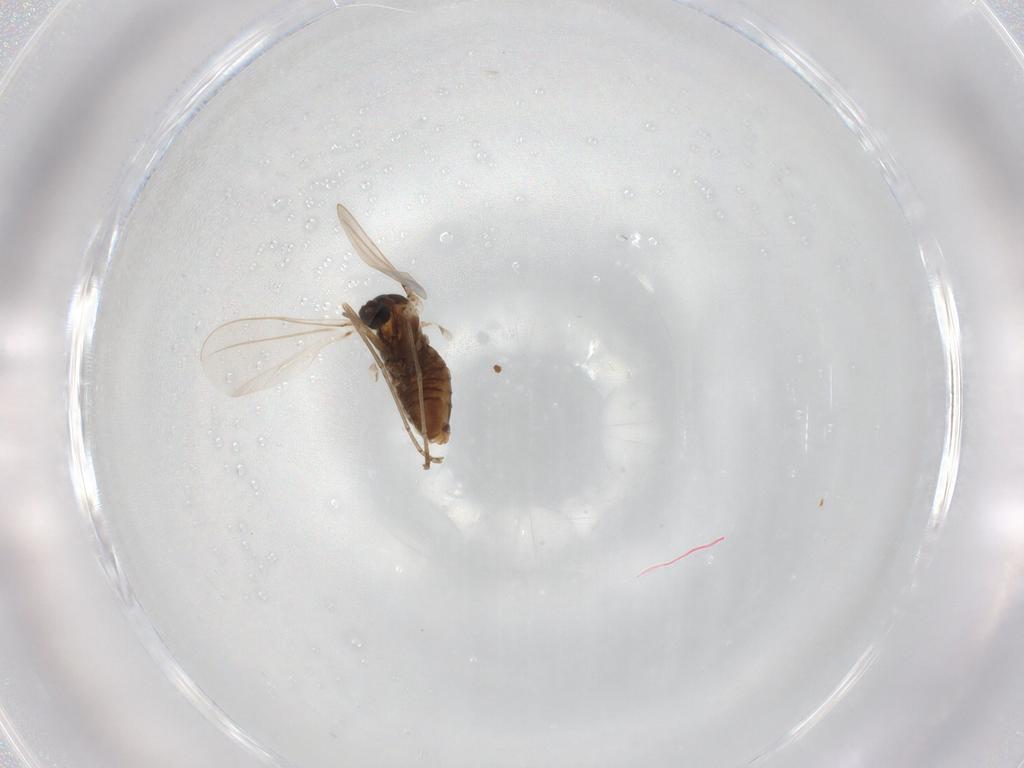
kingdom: Animalia
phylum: Arthropoda
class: Insecta
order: Diptera
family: Cecidomyiidae
